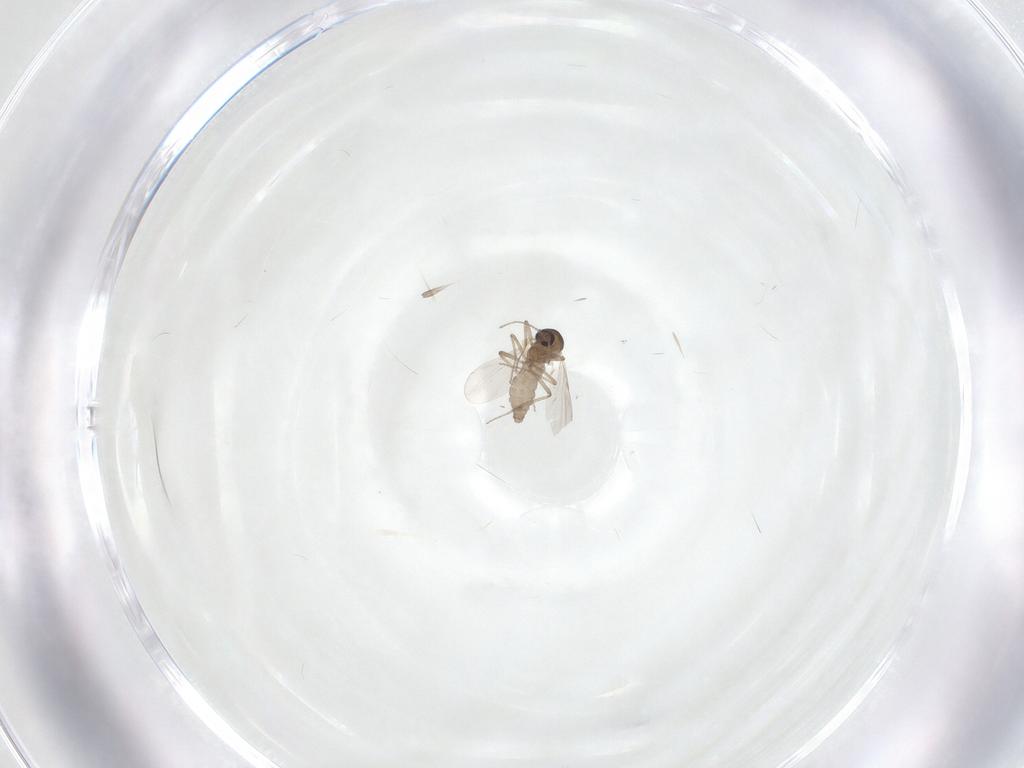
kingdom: Animalia
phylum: Arthropoda
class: Insecta
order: Diptera
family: Ceratopogonidae
